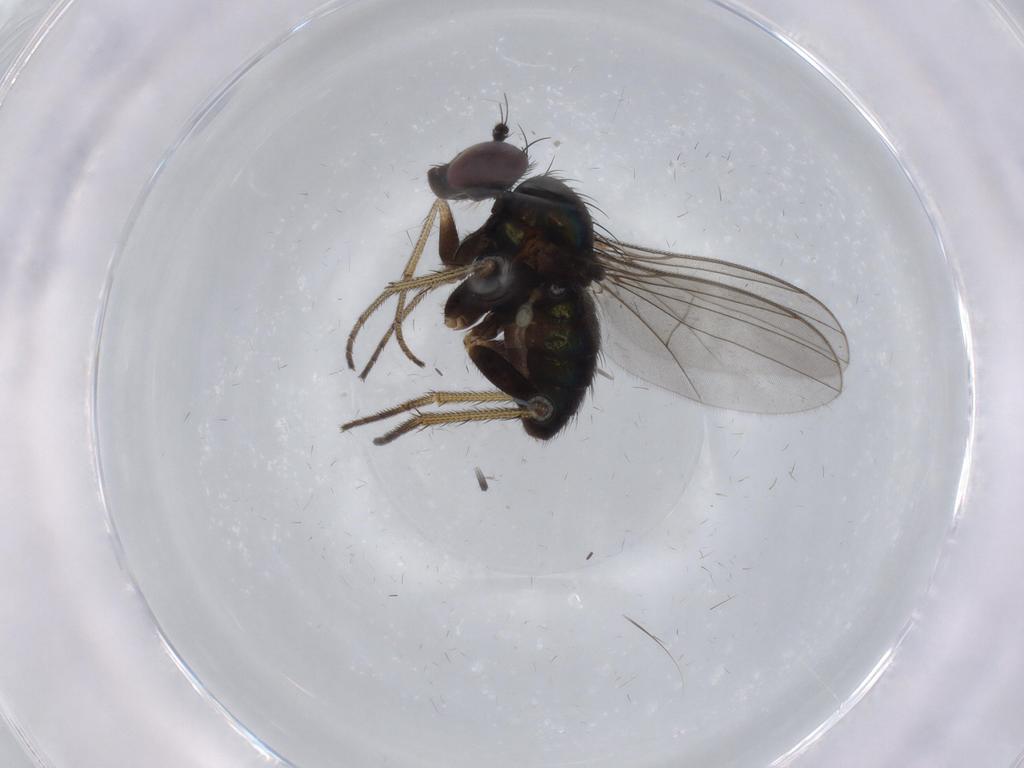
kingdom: Animalia
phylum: Arthropoda
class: Insecta
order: Diptera
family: Dolichopodidae
